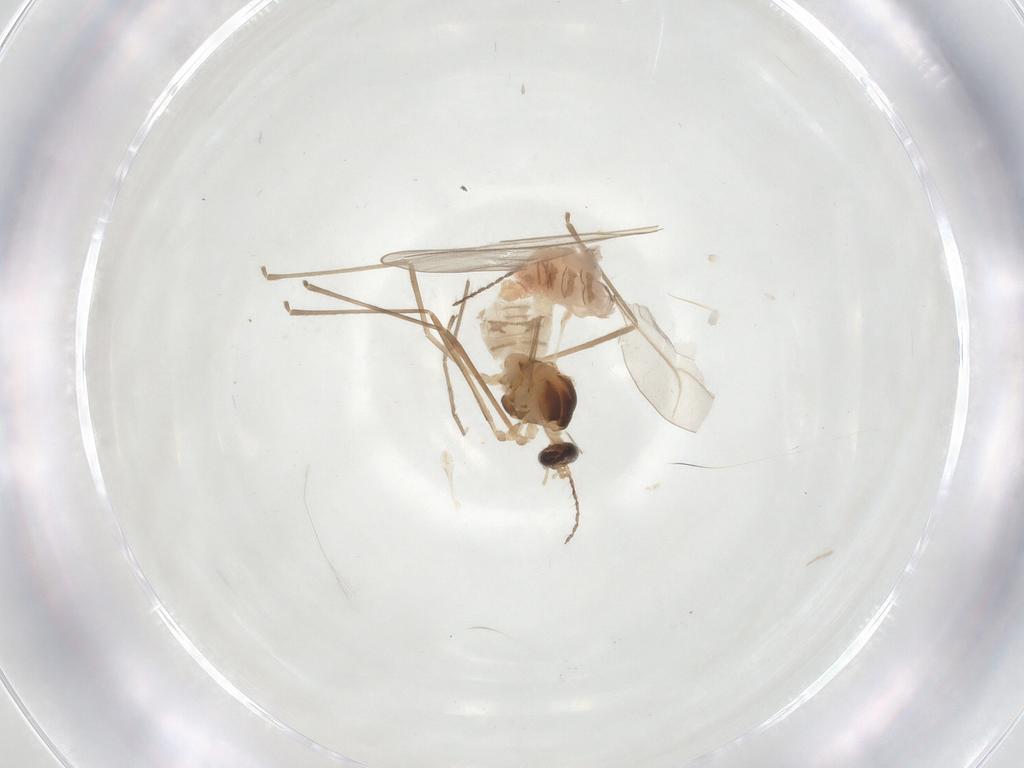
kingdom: Animalia
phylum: Arthropoda
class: Insecta
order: Diptera
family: Cecidomyiidae
